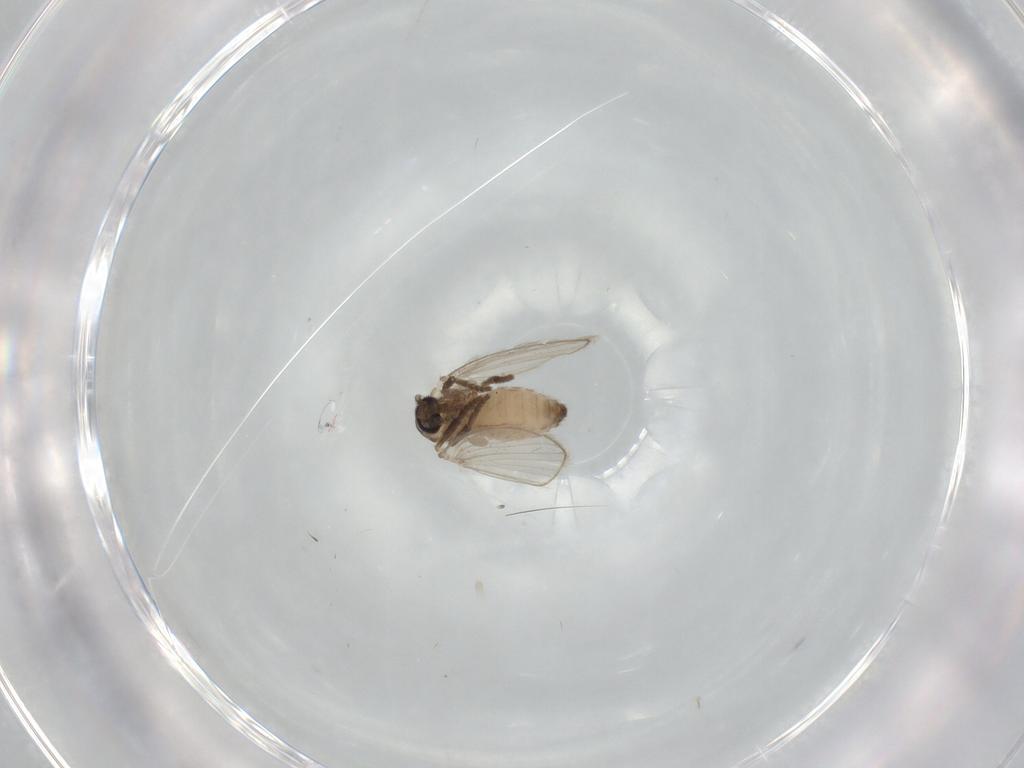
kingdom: Animalia
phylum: Arthropoda
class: Insecta
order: Diptera
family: Psychodidae
